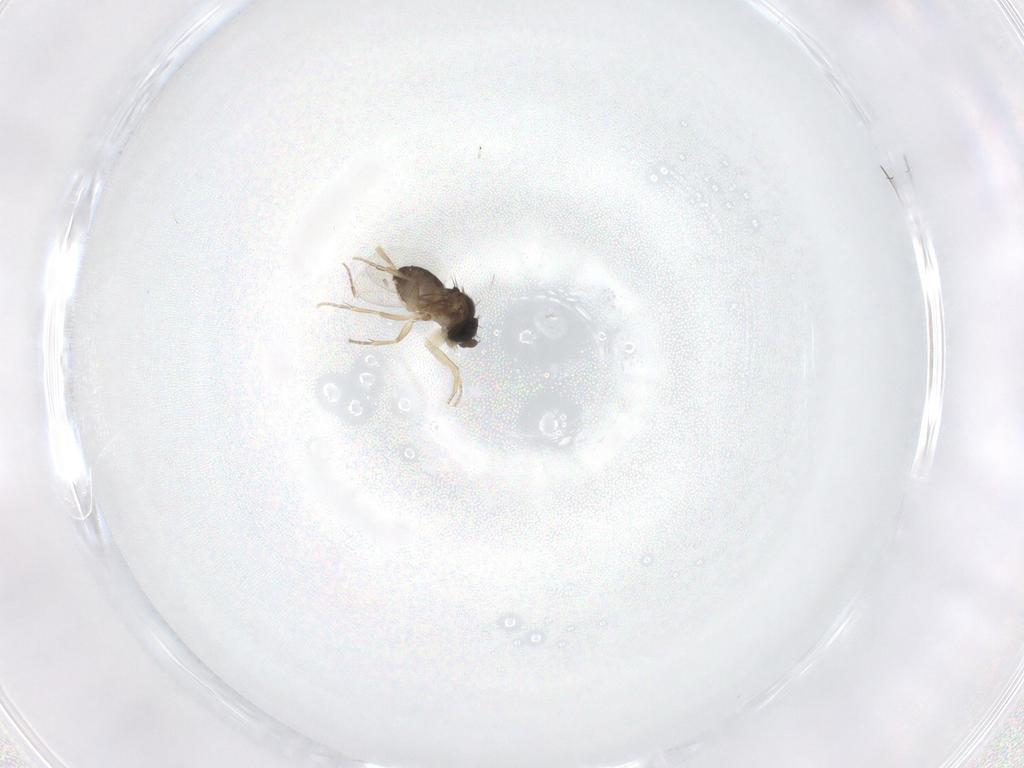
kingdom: Animalia
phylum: Arthropoda
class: Insecta
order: Diptera
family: Phoridae
